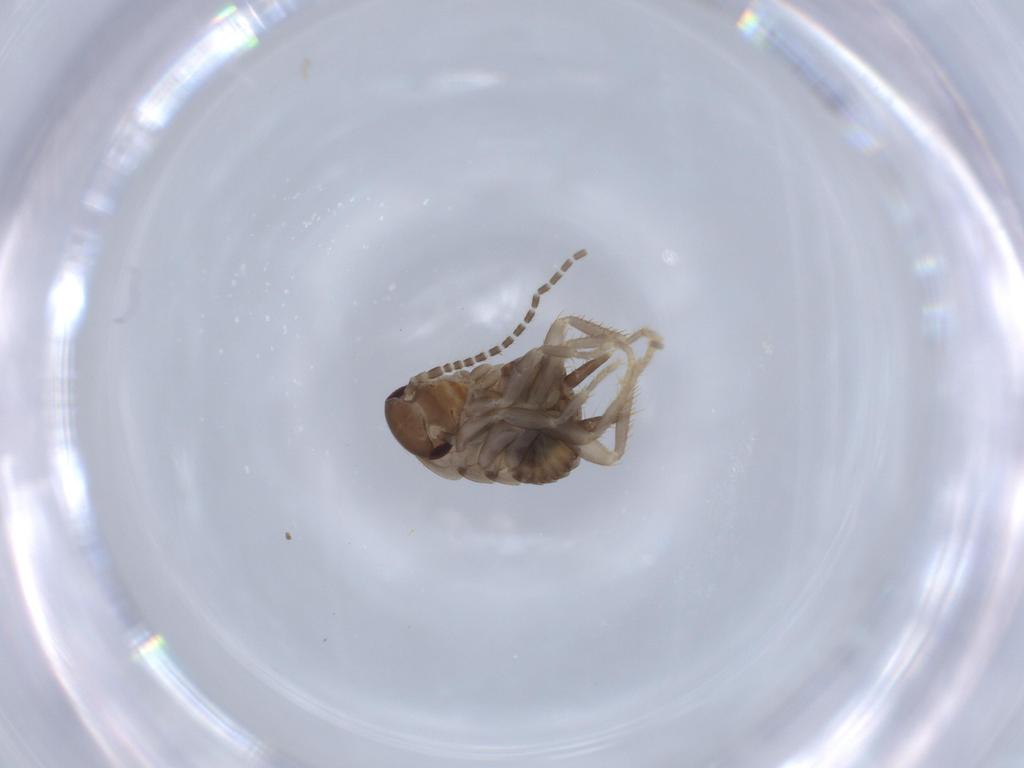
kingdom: Animalia
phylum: Arthropoda
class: Insecta
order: Blattodea
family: Ectobiidae
